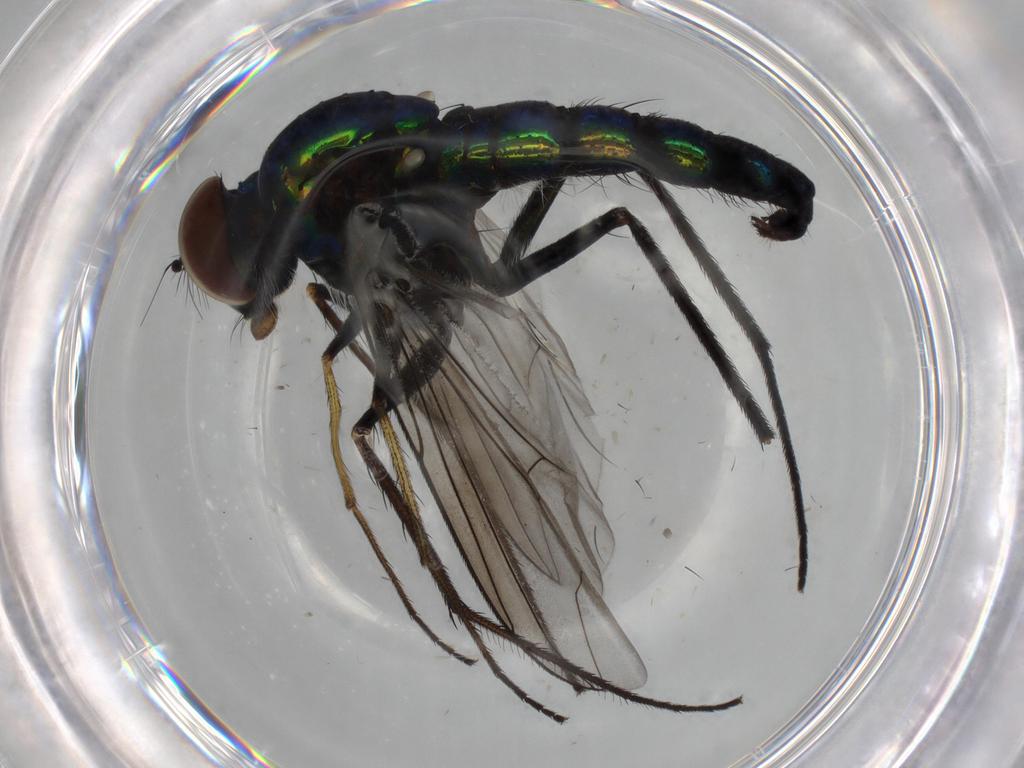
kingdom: Animalia
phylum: Arthropoda
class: Insecta
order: Diptera
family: Dolichopodidae
